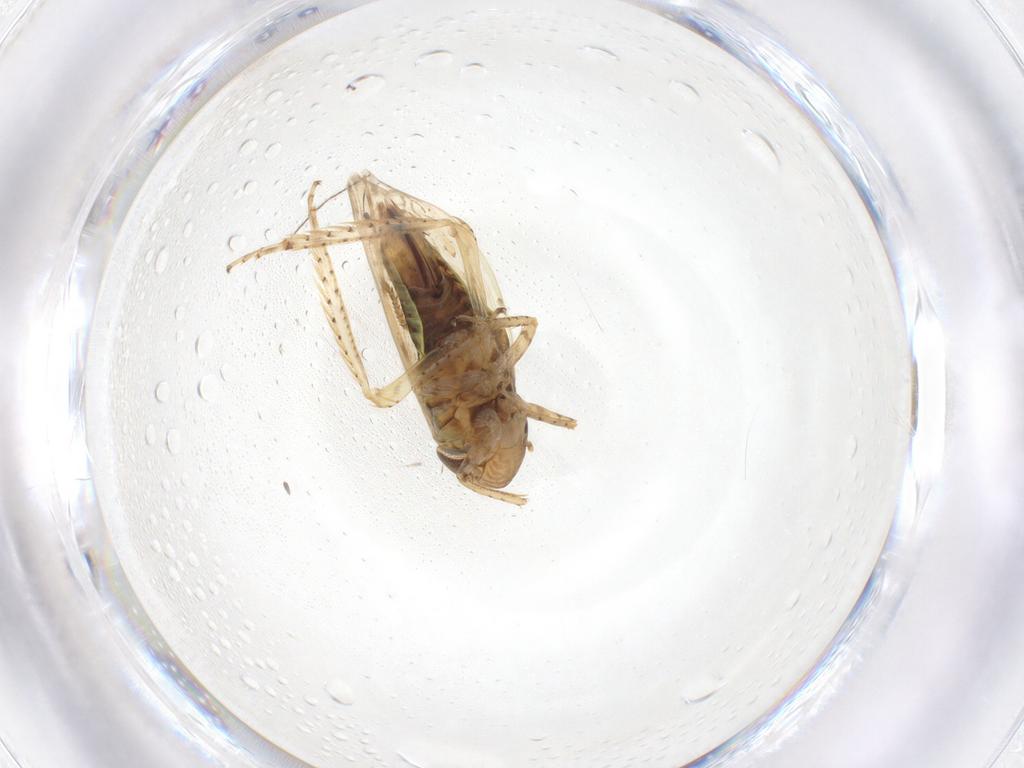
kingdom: Animalia
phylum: Arthropoda
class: Insecta
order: Hemiptera
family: Cicadellidae
